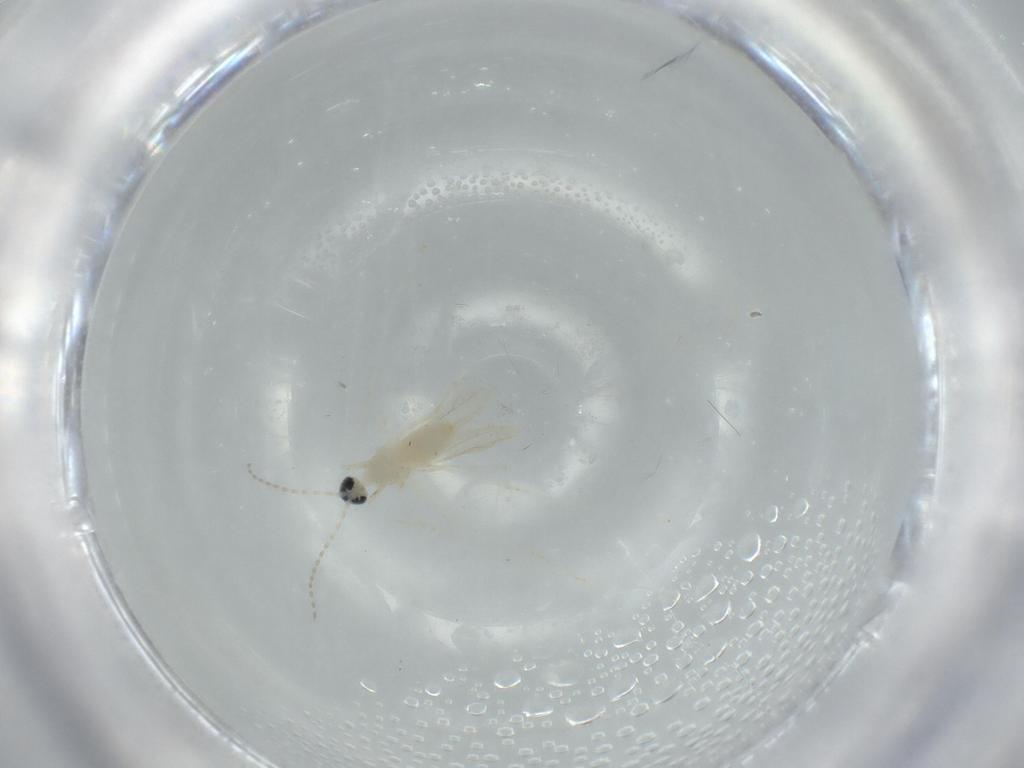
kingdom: Animalia
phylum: Arthropoda
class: Insecta
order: Diptera
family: Cecidomyiidae
